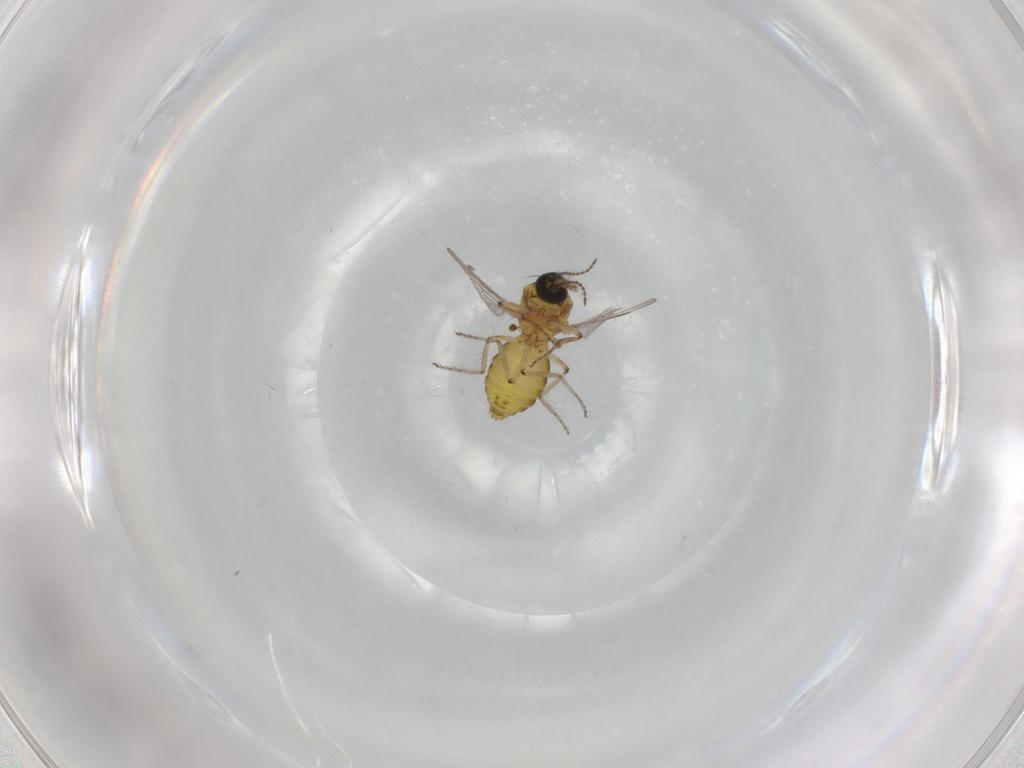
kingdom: Animalia
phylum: Arthropoda
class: Insecta
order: Diptera
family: Ceratopogonidae
